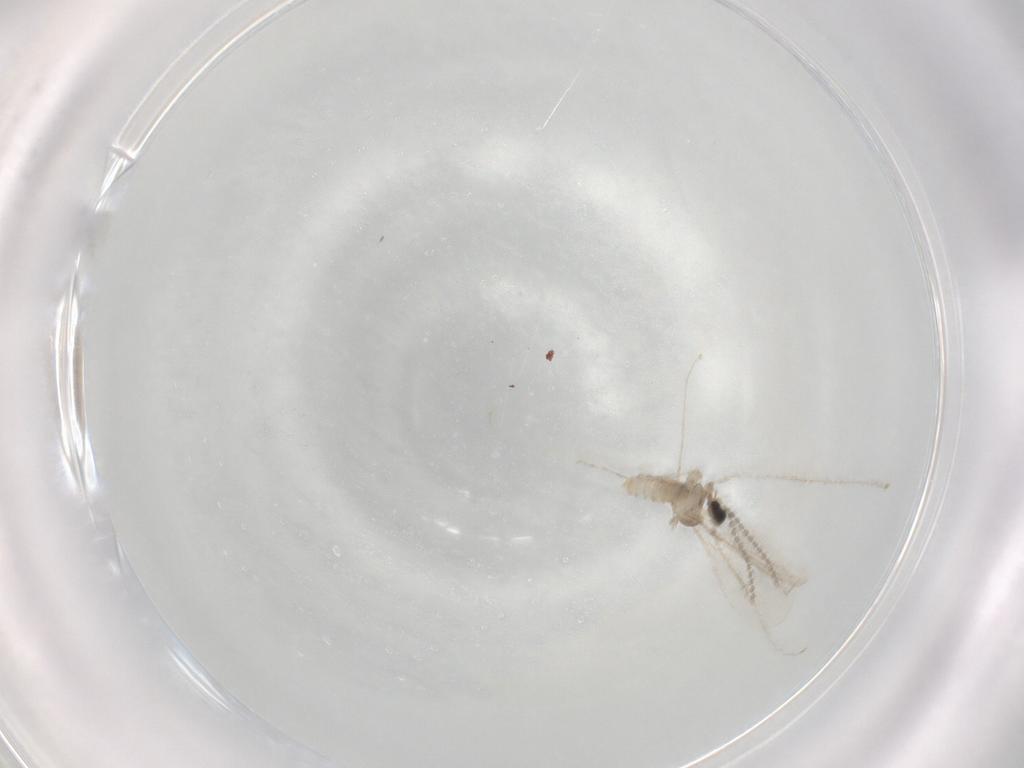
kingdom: Animalia
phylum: Arthropoda
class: Insecta
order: Diptera
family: Cecidomyiidae
